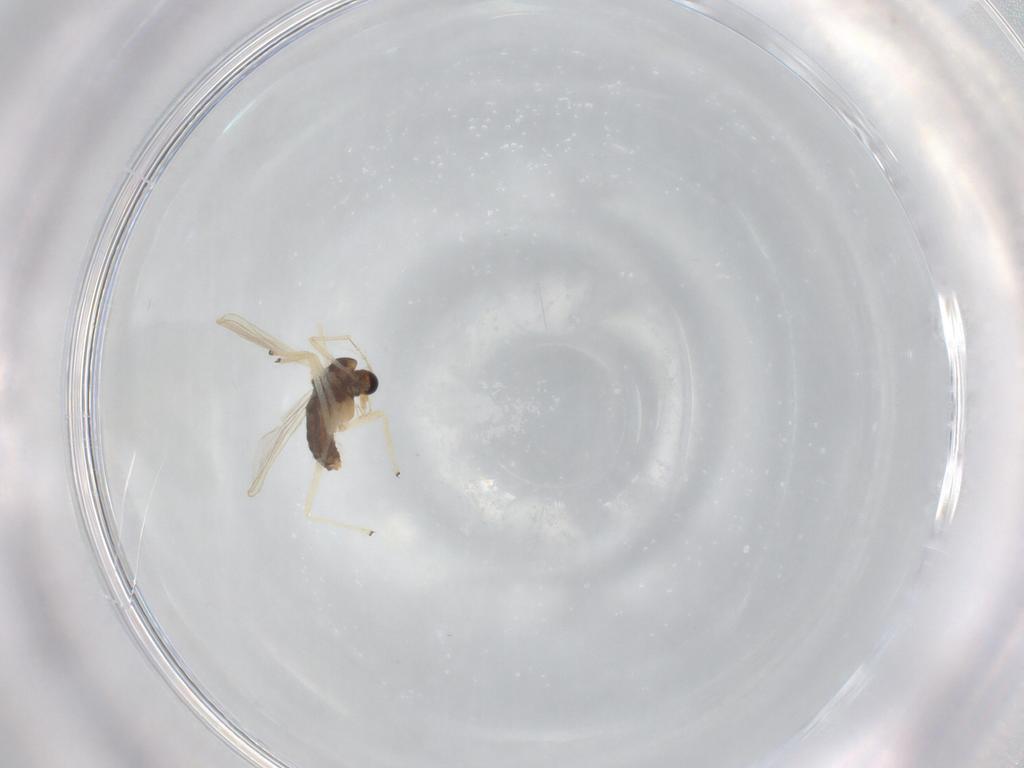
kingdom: Animalia
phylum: Arthropoda
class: Insecta
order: Diptera
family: Chironomidae
